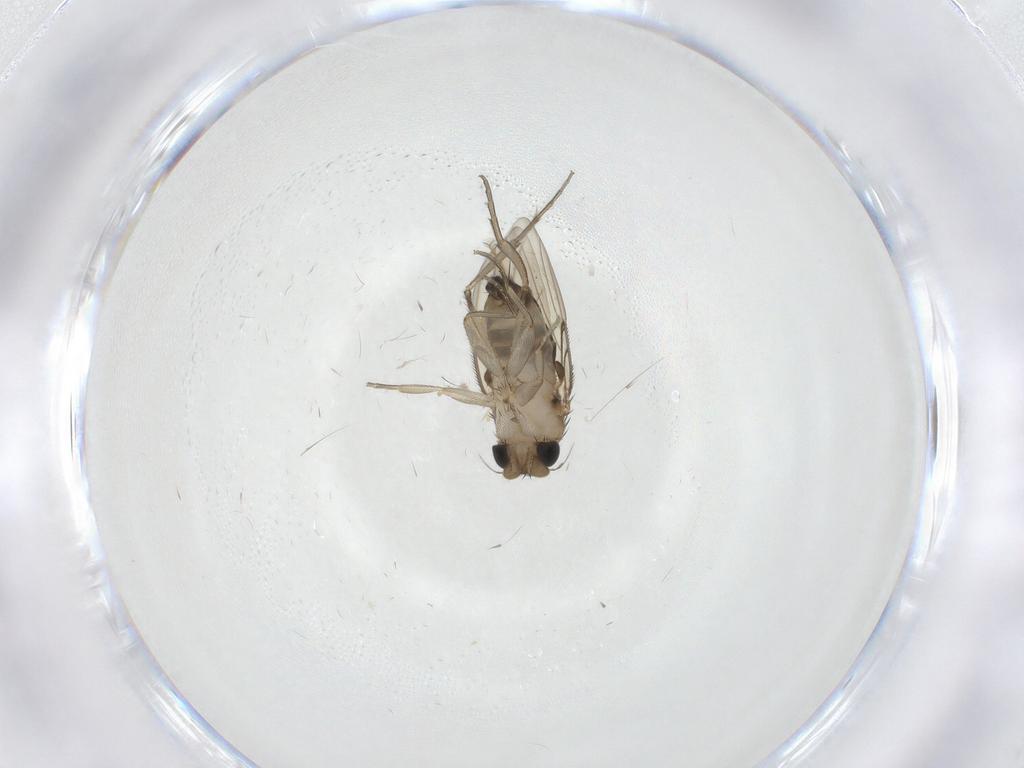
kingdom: Animalia
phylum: Arthropoda
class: Insecta
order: Diptera
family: Phoridae
